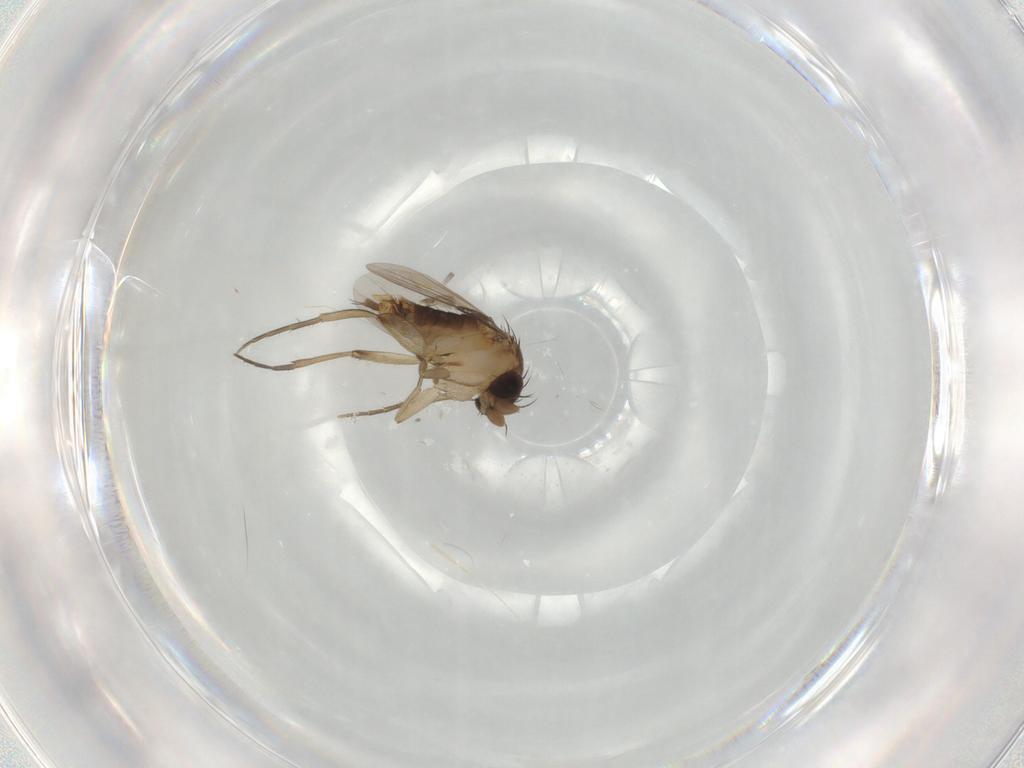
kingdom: Animalia
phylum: Arthropoda
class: Insecta
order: Diptera
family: Phoridae
